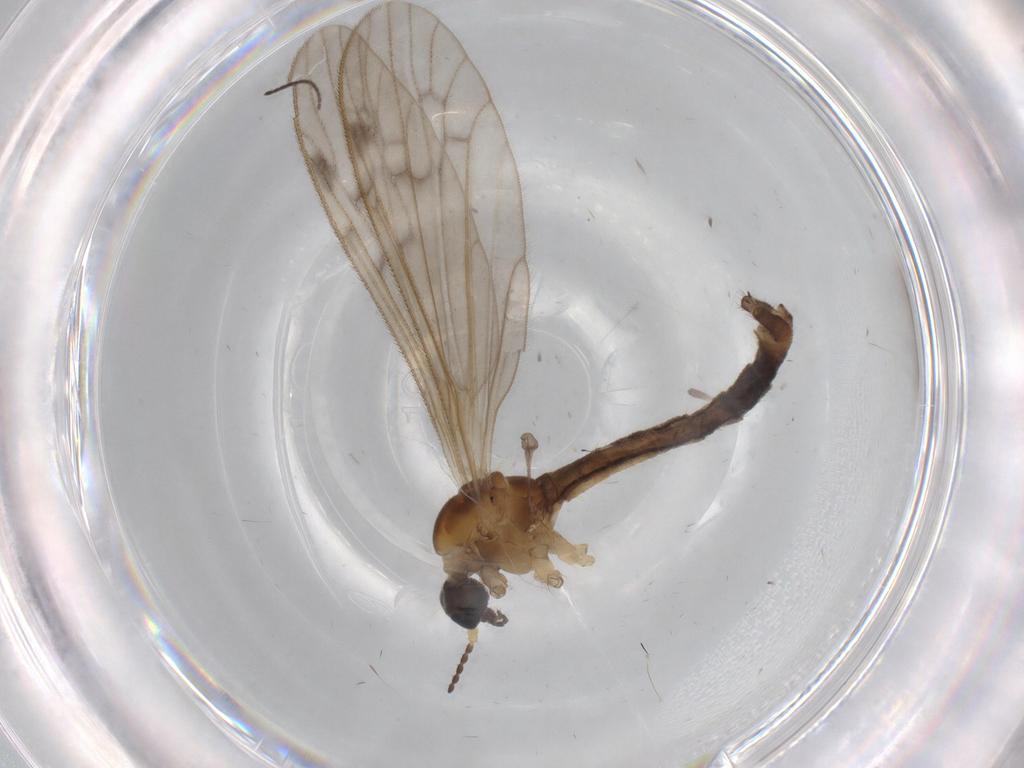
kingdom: Animalia
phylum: Arthropoda
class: Insecta
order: Diptera
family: Sciaridae
